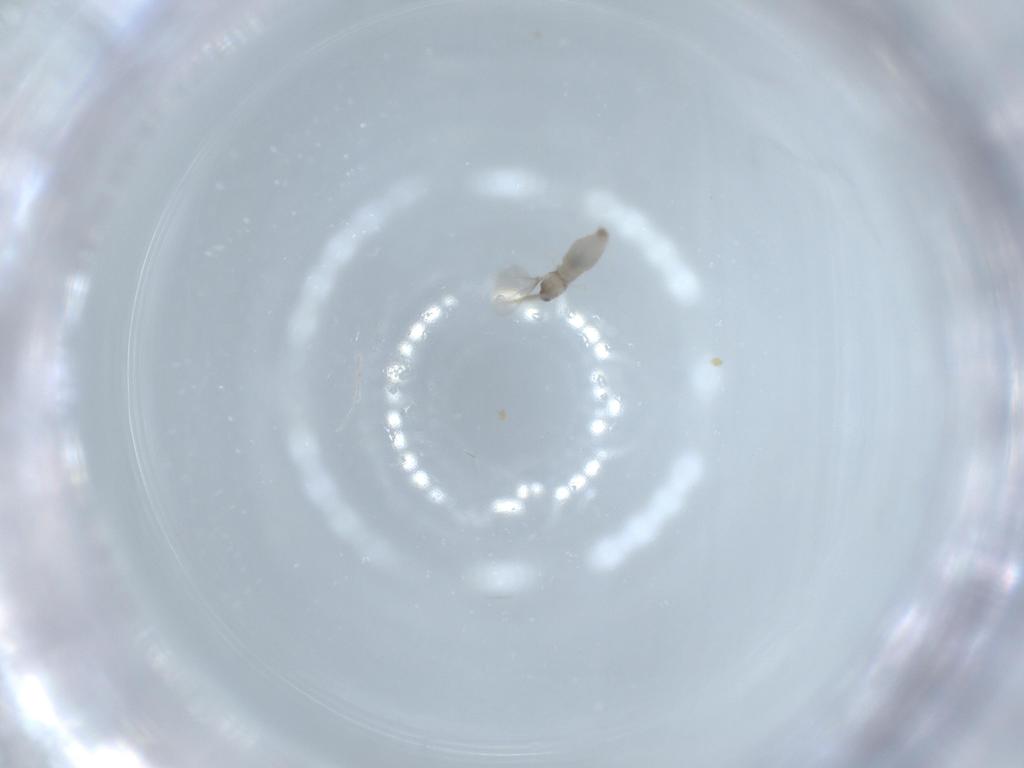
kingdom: Animalia
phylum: Arthropoda
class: Insecta
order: Diptera
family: Cecidomyiidae
